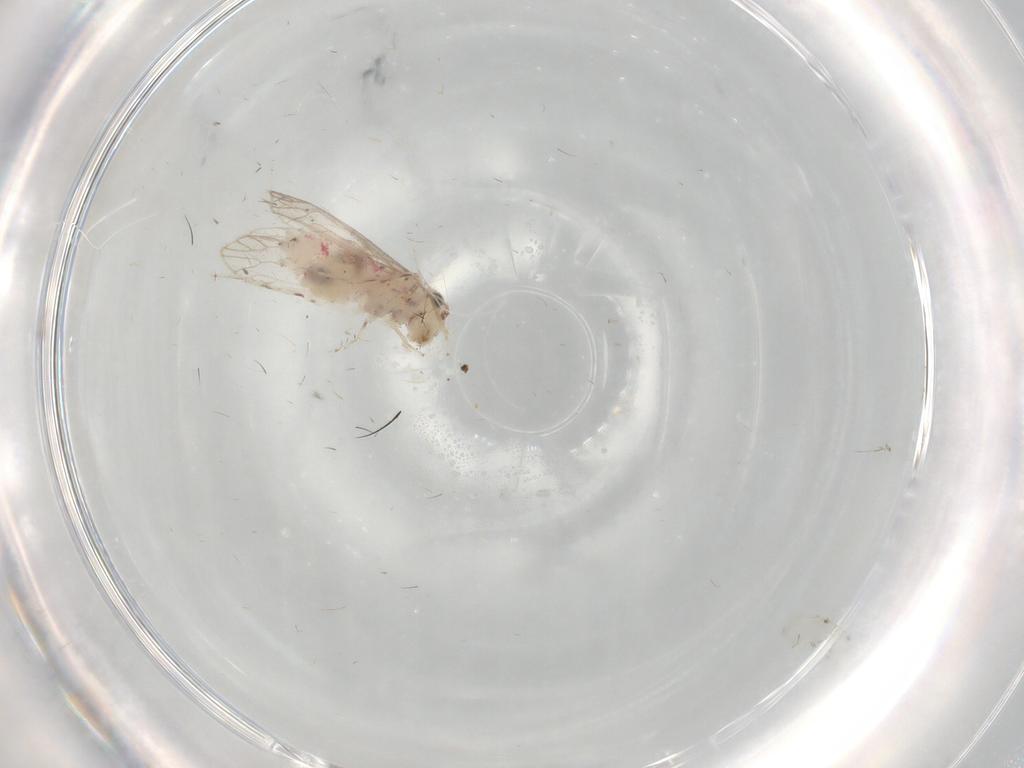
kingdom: Animalia
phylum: Arthropoda
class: Insecta
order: Psocodea
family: Caeciliusidae
